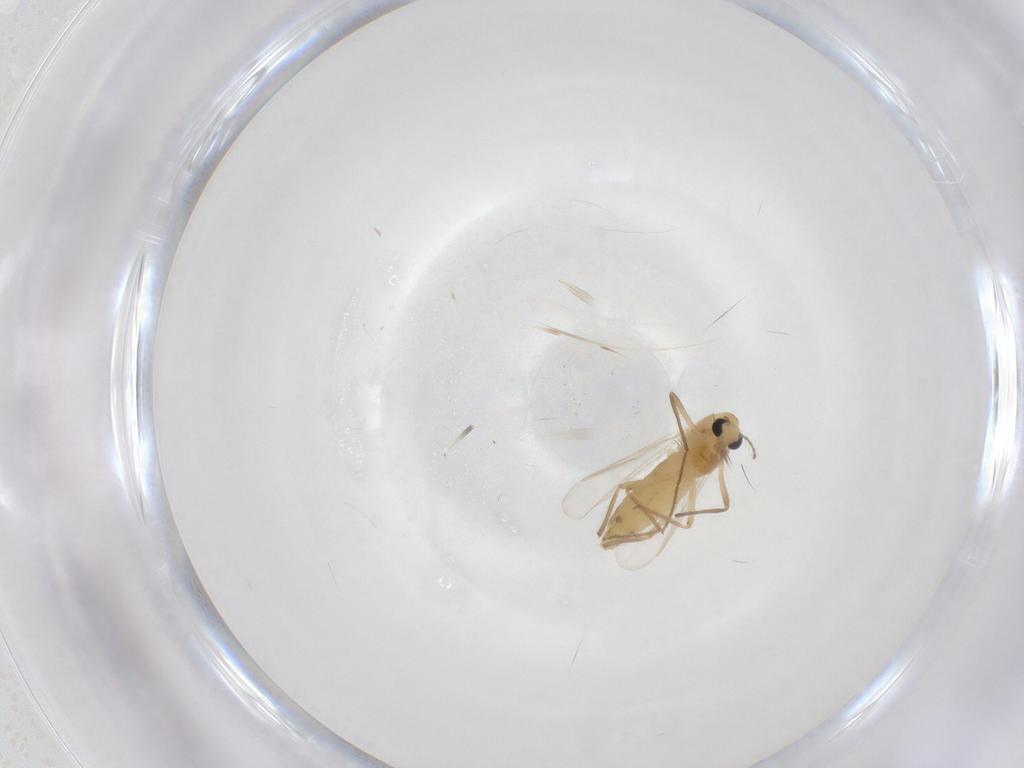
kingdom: Animalia
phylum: Arthropoda
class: Insecta
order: Diptera
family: Chironomidae
